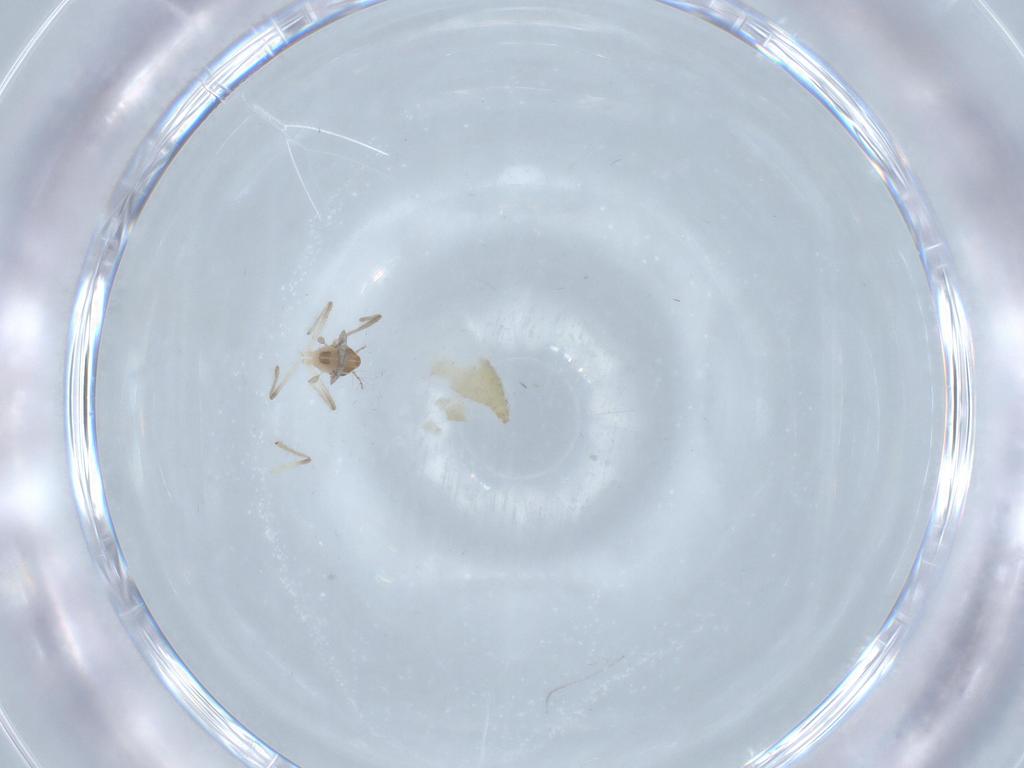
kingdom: Animalia
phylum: Arthropoda
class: Insecta
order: Diptera
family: Chironomidae
